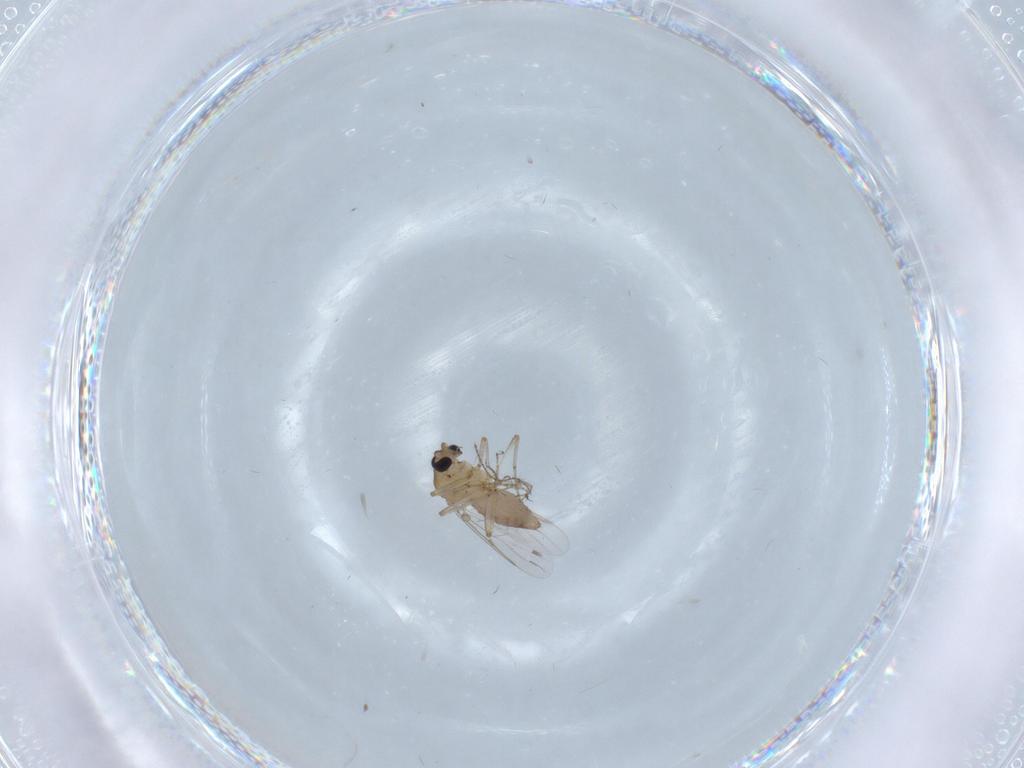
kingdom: Animalia
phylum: Arthropoda
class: Insecta
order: Diptera
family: Ceratopogonidae
